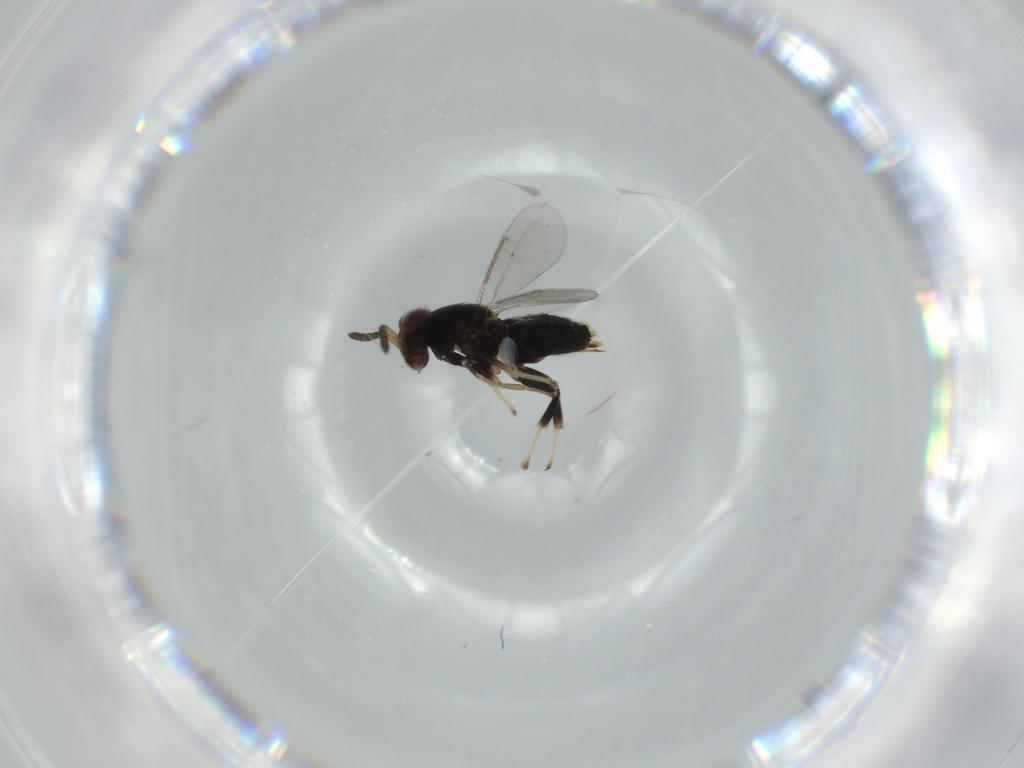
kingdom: Animalia
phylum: Arthropoda
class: Insecta
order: Hymenoptera
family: Aphelinidae
